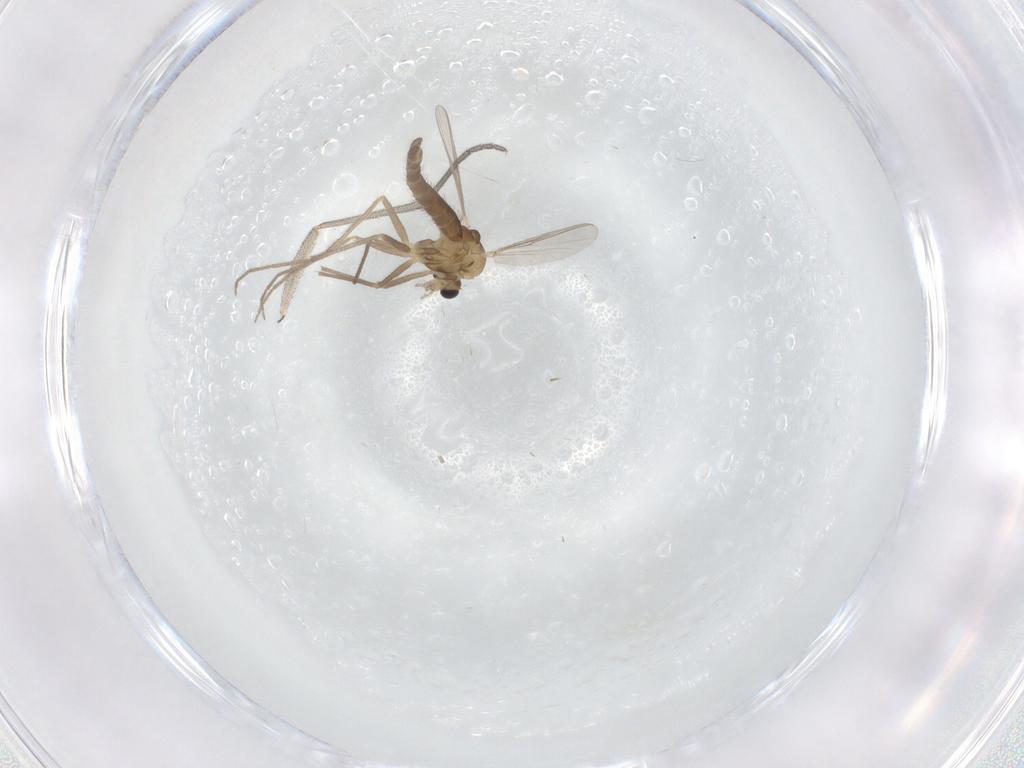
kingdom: Animalia
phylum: Arthropoda
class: Insecta
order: Diptera
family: Chironomidae
